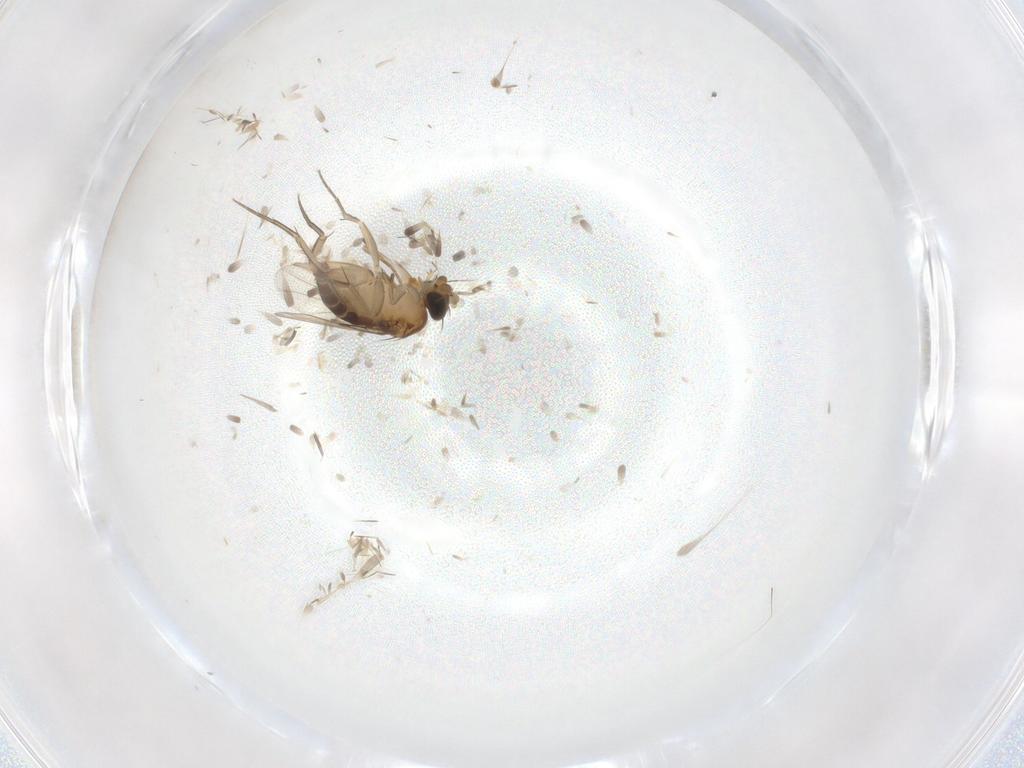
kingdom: Animalia
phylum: Arthropoda
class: Insecta
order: Diptera
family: Phoridae
